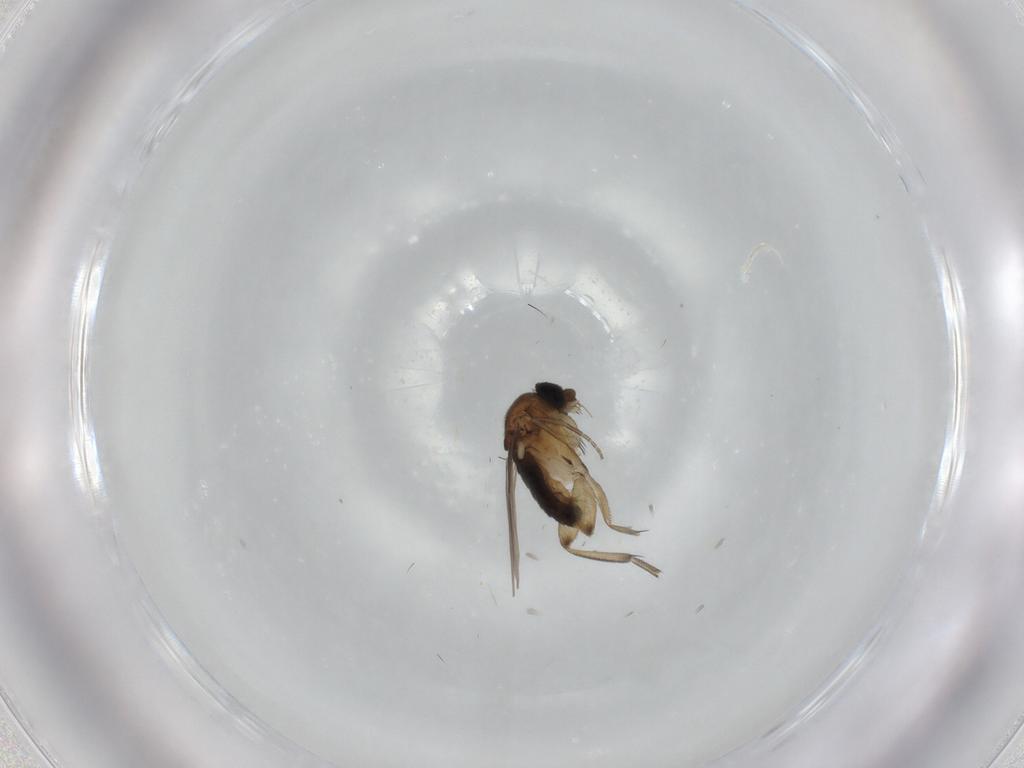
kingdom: Animalia
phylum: Arthropoda
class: Insecta
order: Diptera
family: Phoridae
